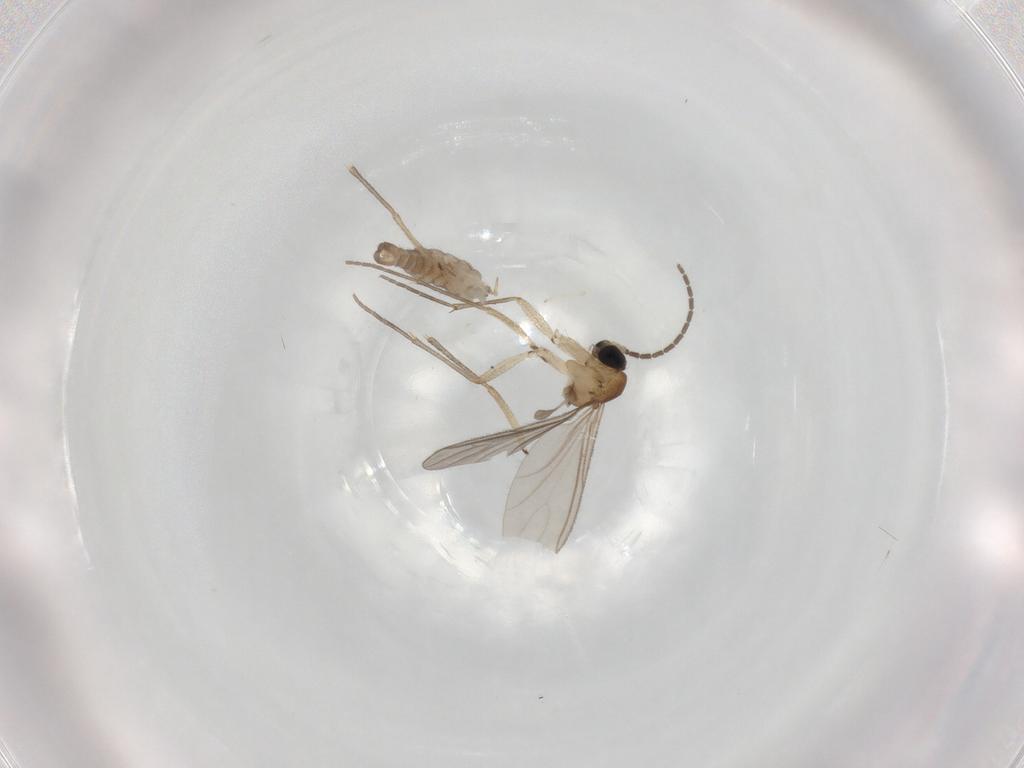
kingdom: Animalia
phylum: Arthropoda
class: Insecta
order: Diptera
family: Sciaridae
